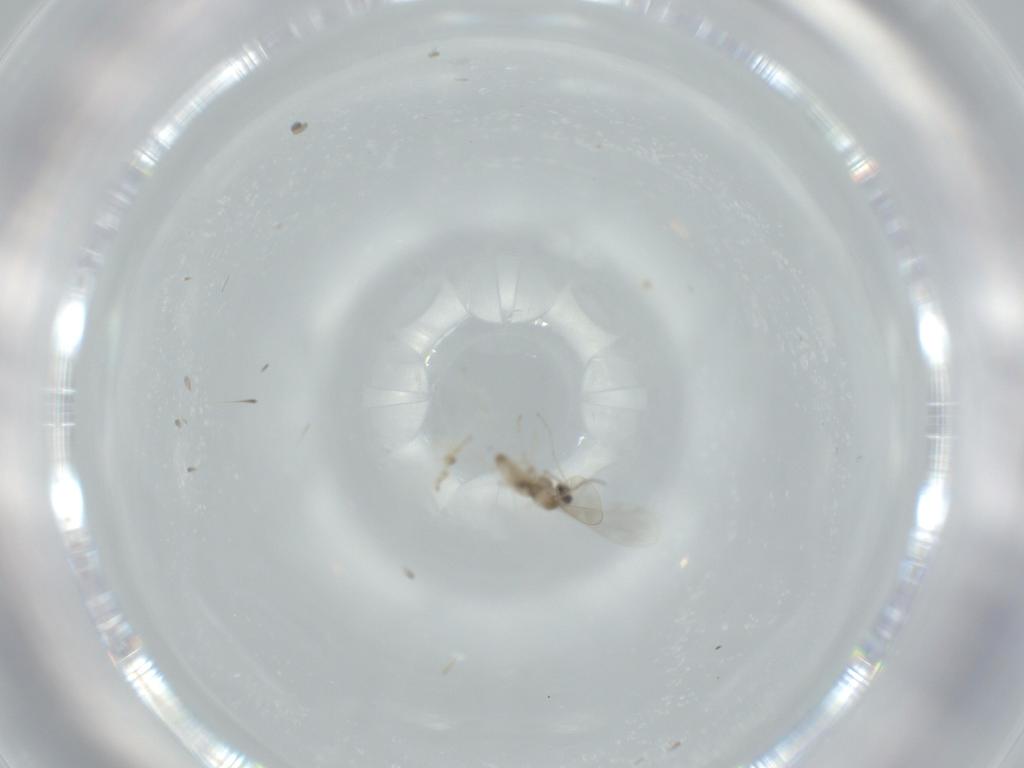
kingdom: Animalia
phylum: Arthropoda
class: Insecta
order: Diptera
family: Cecidomyiidae
